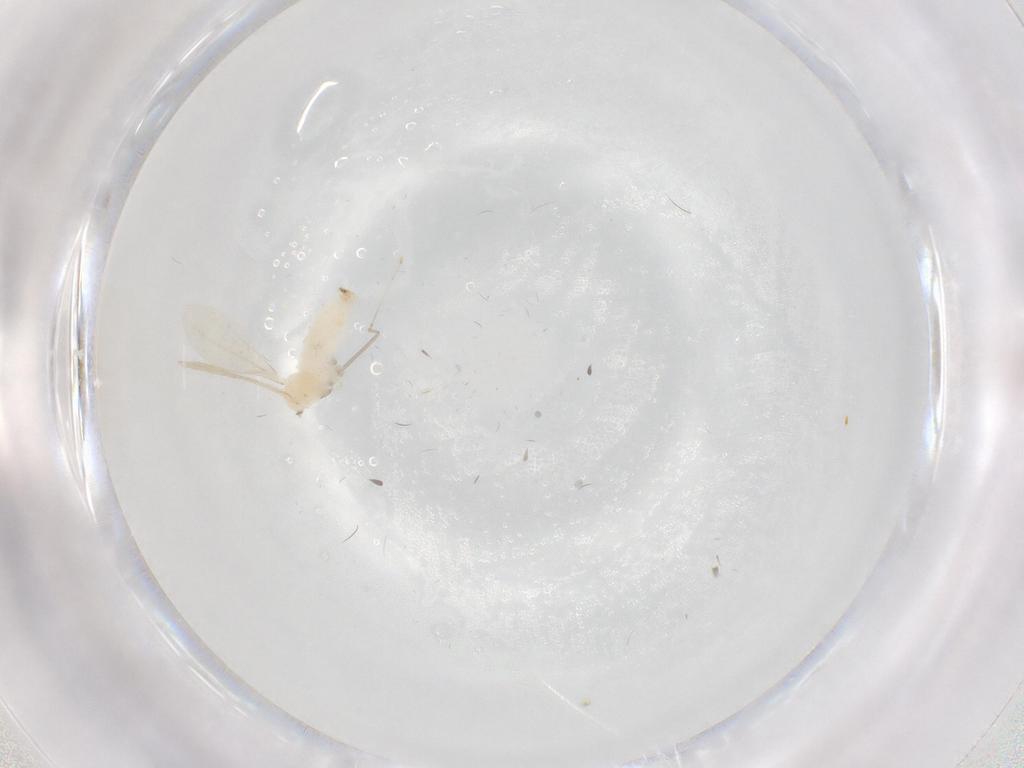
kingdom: Animalia
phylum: Arthropoda
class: Insecta
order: Diptera
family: Cecidomyiidae
